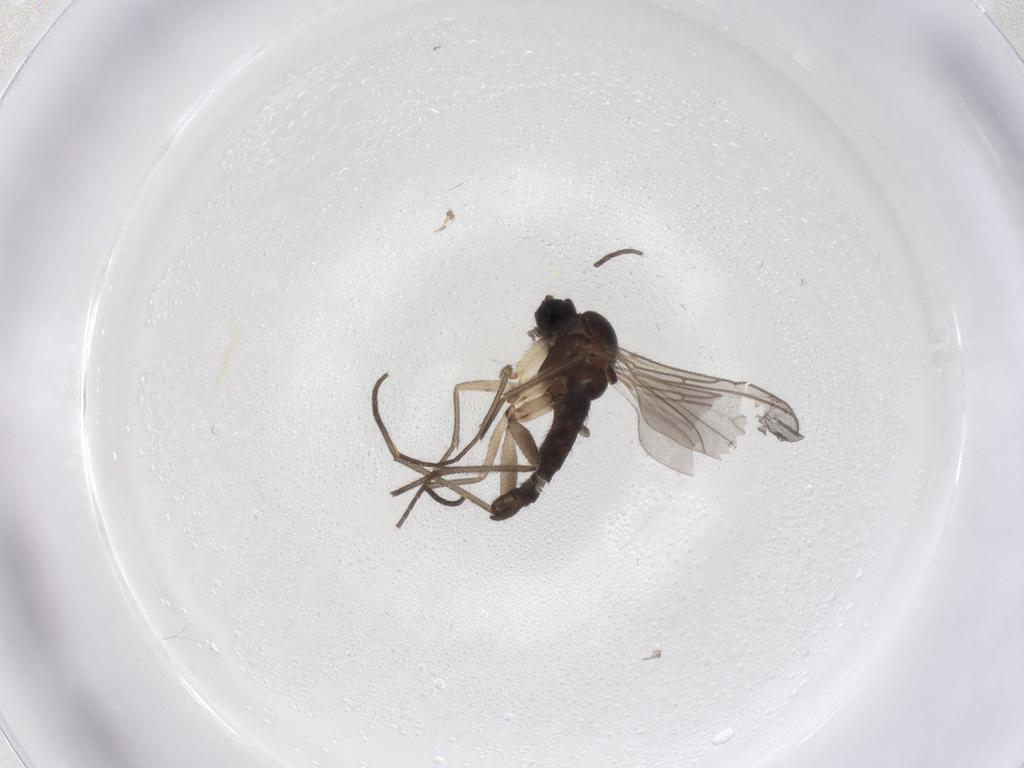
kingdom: Animalia
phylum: Arthropoda
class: Insecta
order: Diptera
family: Sciaridae
